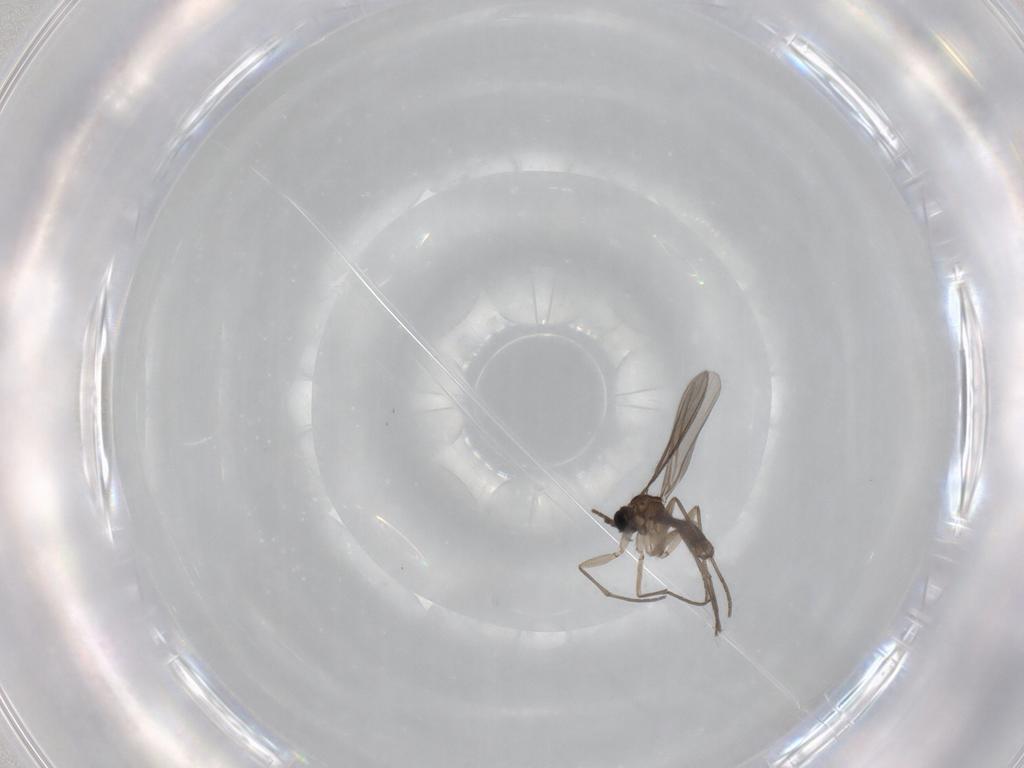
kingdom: Animalia
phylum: Arthropoda
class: Insecta
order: Diptera
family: Sciaridae
